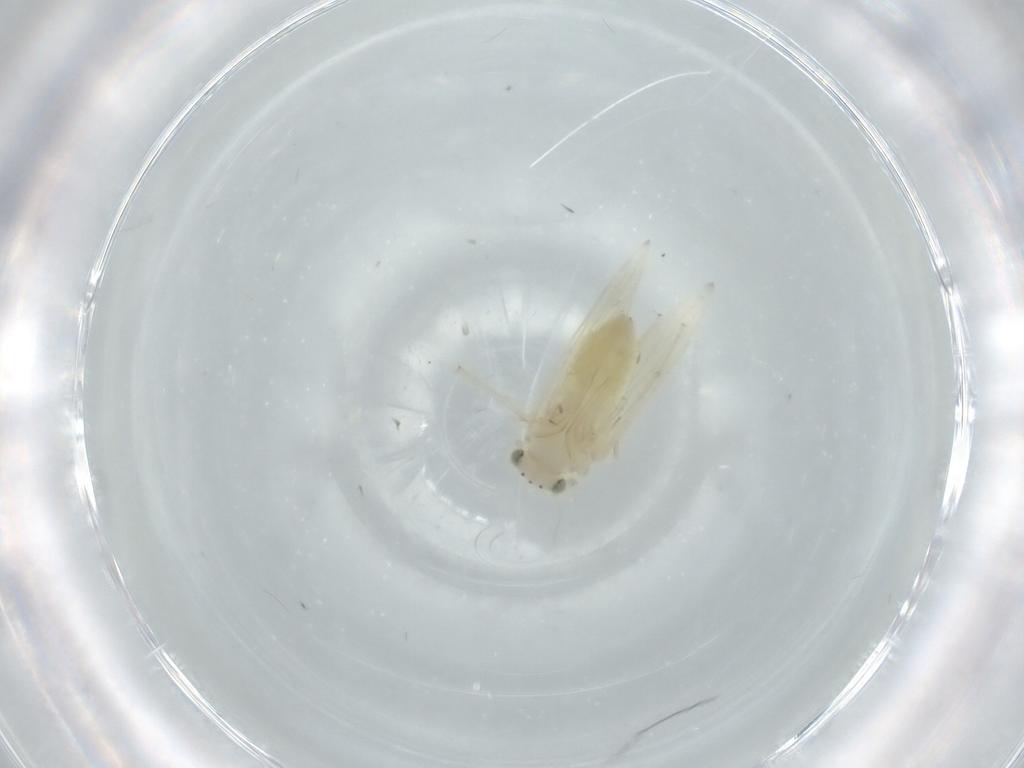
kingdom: Animalia
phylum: Arthropoda
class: Insecta
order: Psocodea
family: Lepidopsocidae
